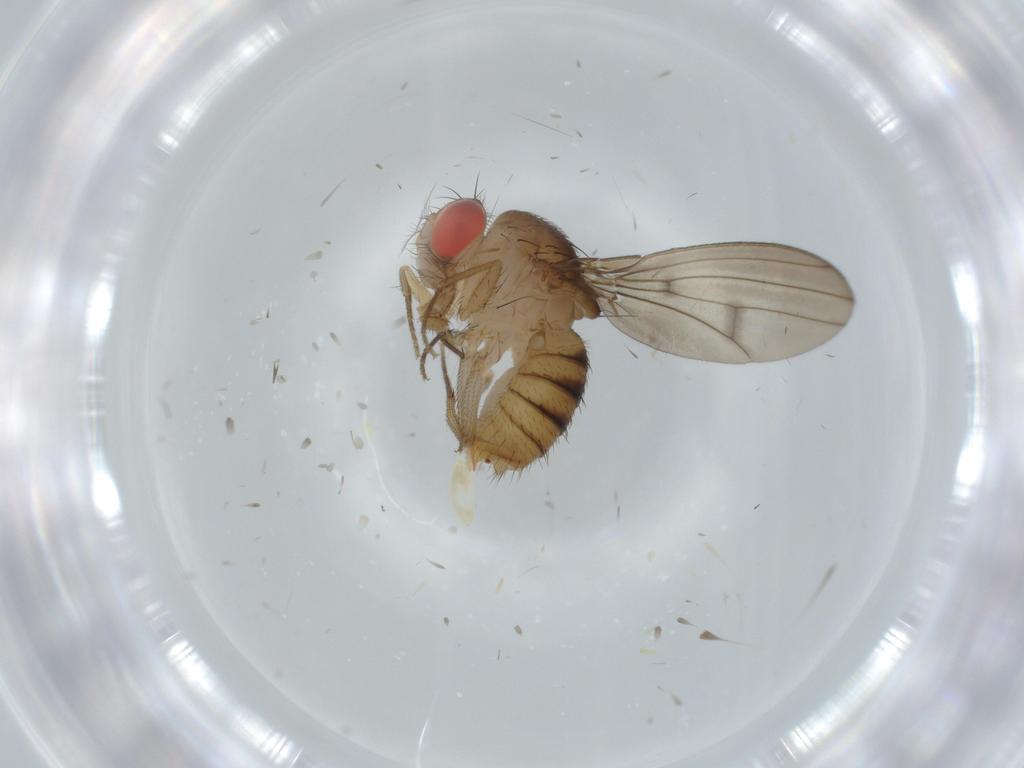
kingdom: Animalia
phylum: Arthropoda
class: Insecta
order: Diptera
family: Drosophilidae
